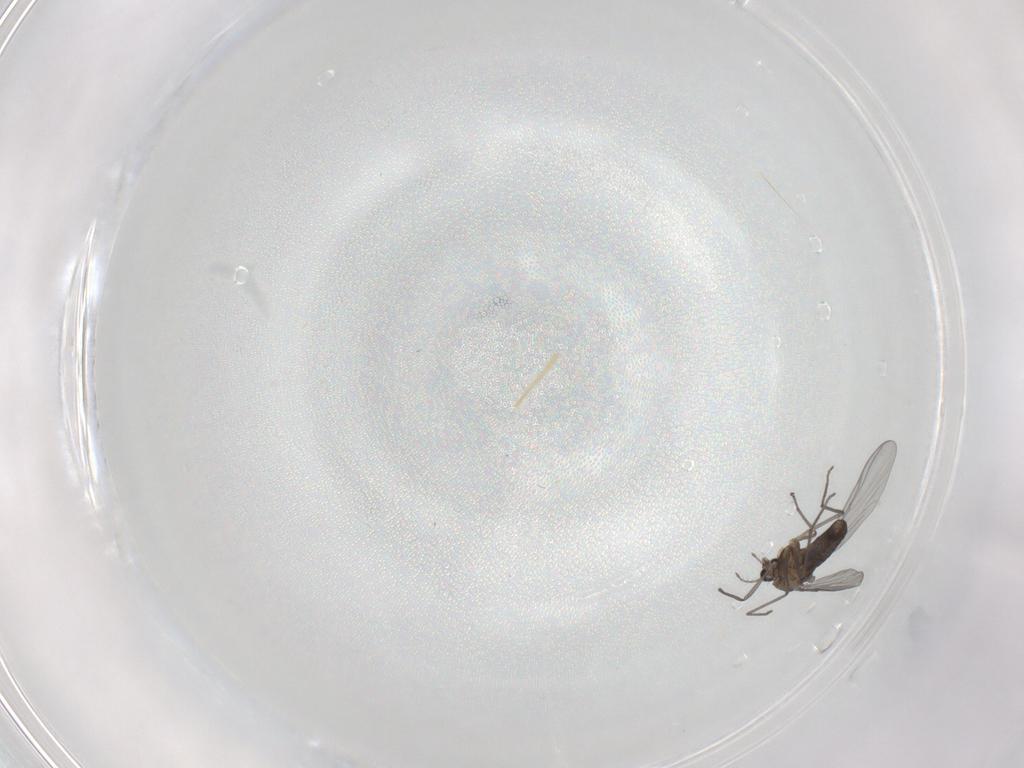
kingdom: Animalia
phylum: Arthropoda
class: Insecta
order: Diptera
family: Chironomidae
